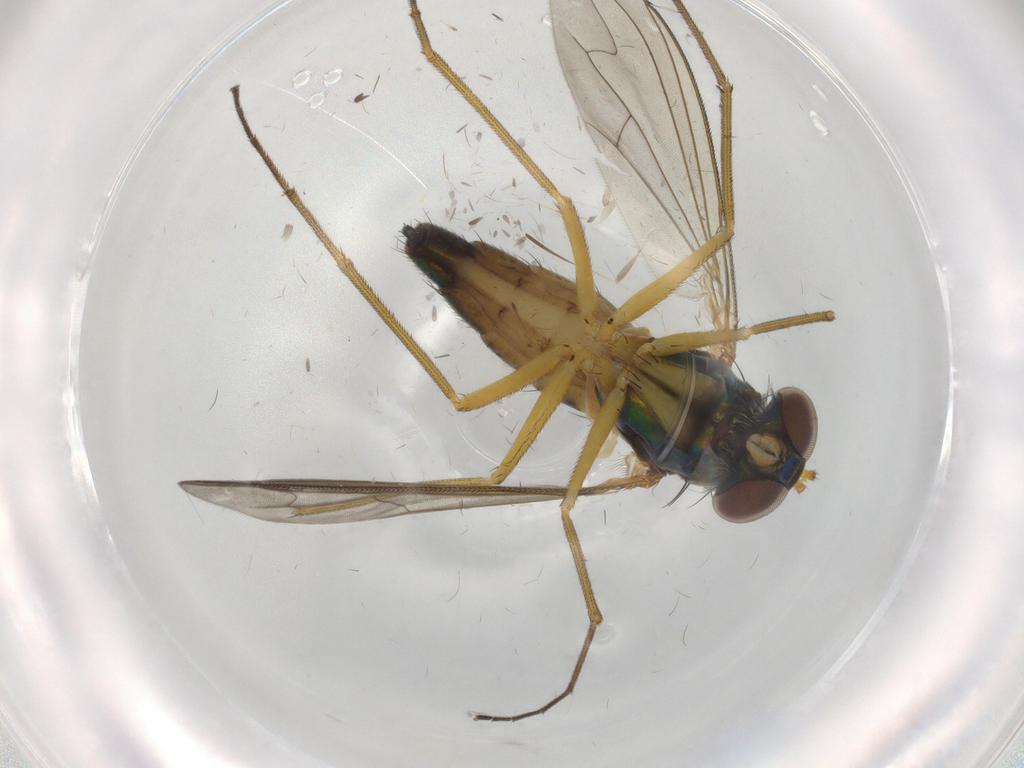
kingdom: Animalia
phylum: Arthropoda
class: Insecta
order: Diptera
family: Dolichopodidae
